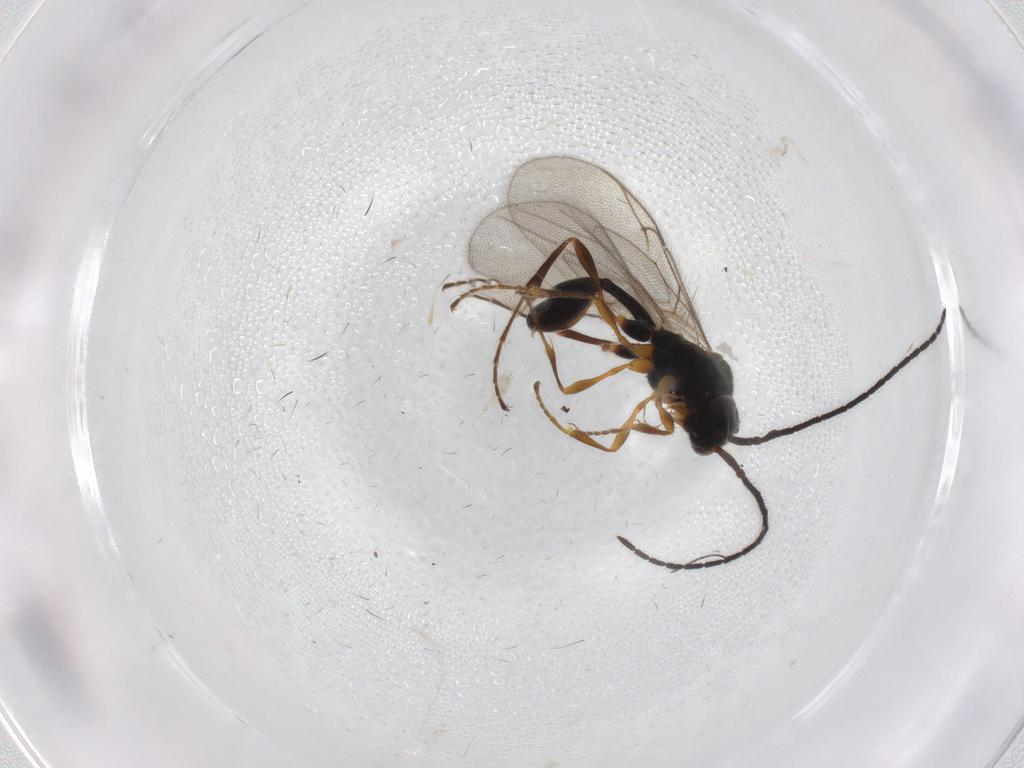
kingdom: Animalia
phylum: Arthropoda
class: Insecta
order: Hymenoptera
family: Diapriidae
